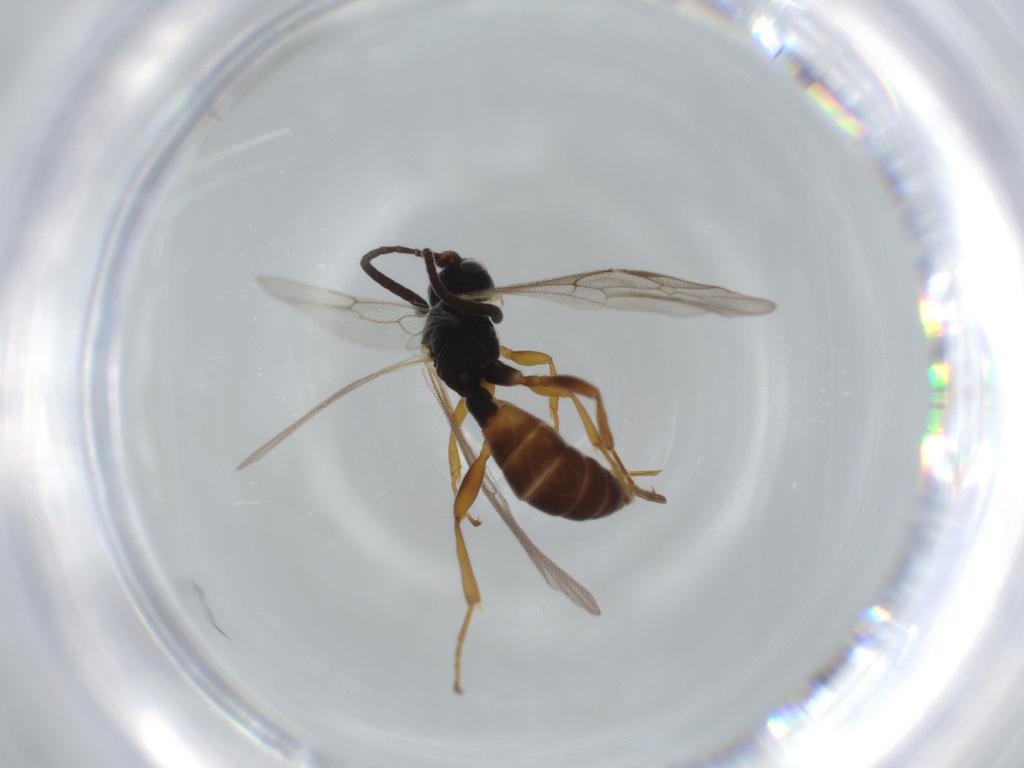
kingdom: Animalia
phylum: Arthropoda
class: Insecta
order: Hymenoptera
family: Ichneumonidae
